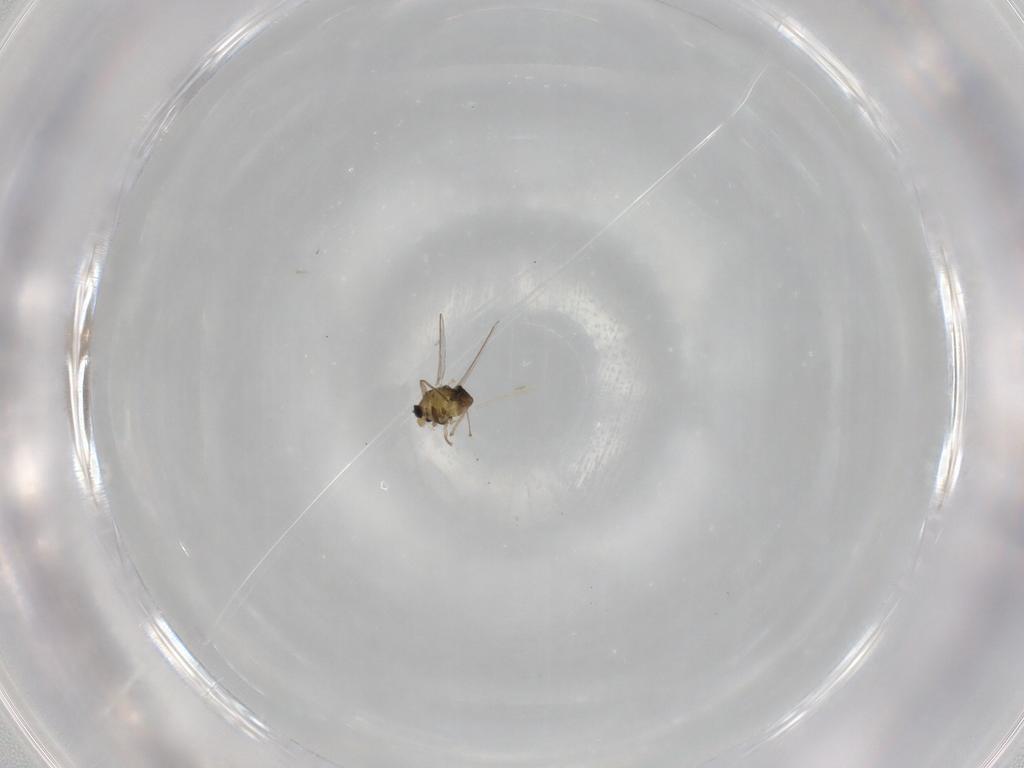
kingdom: Animalia
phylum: Arthropoda
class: Insecta
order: Diptera
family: Chironomidae
